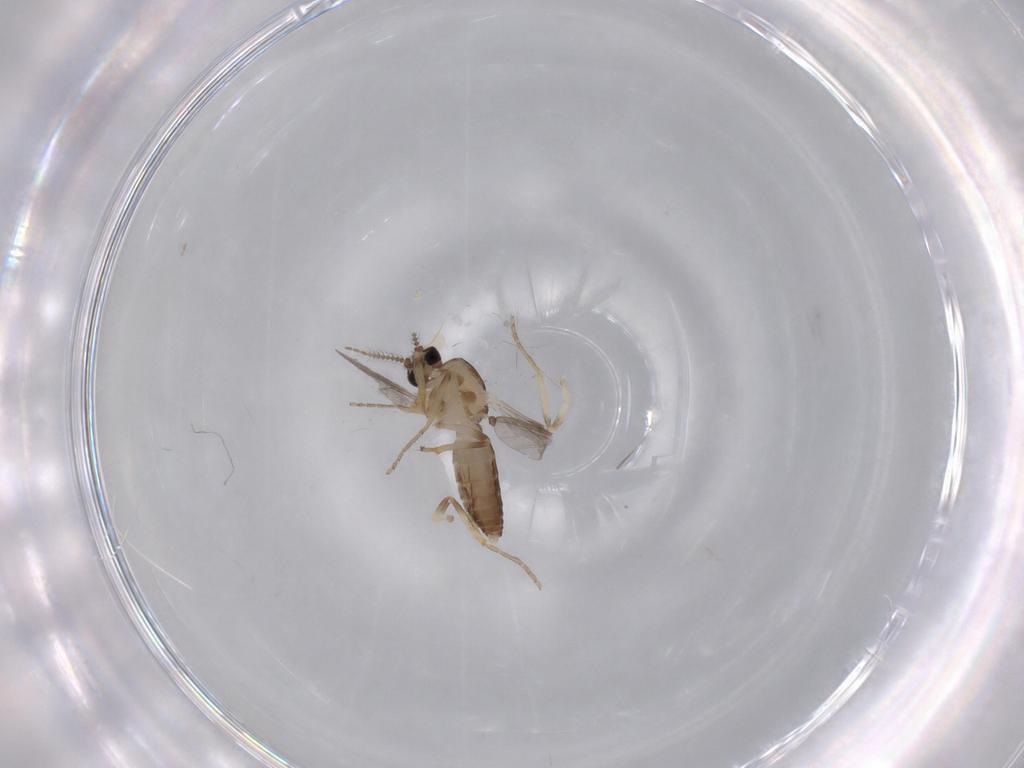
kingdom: Animalia
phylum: Arthropoda
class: Insecta
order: Diptera
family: Ceratopogonidae
